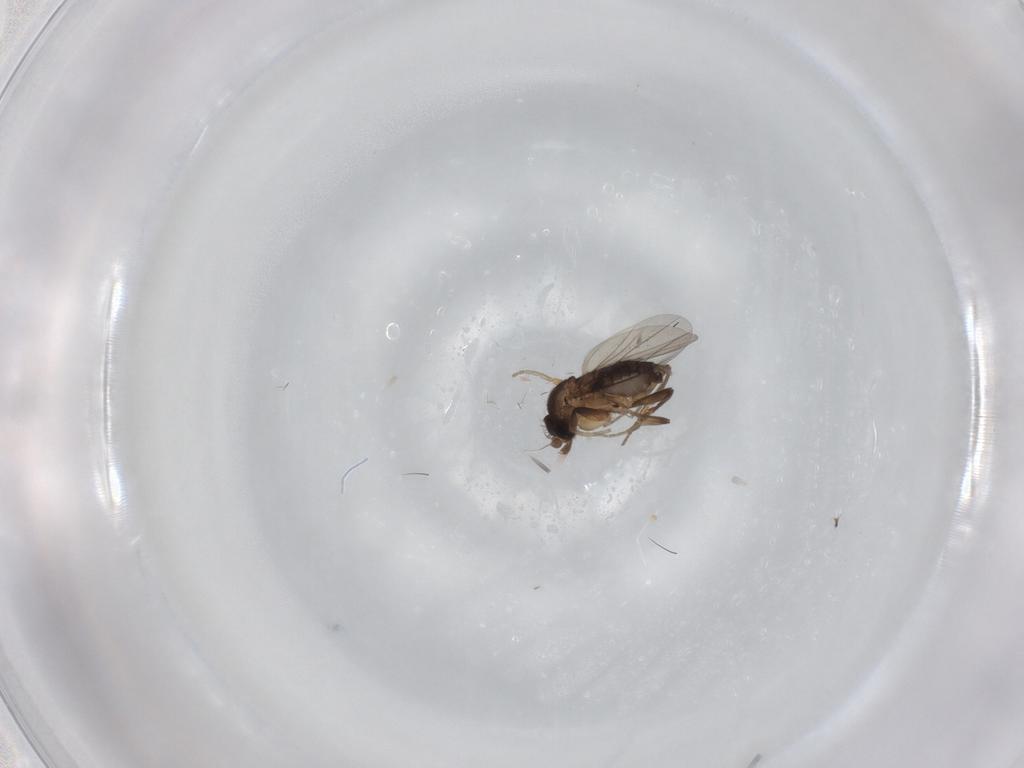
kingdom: Animalia
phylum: Arthropoda
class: Insecta
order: Diptera
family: Phoridae
